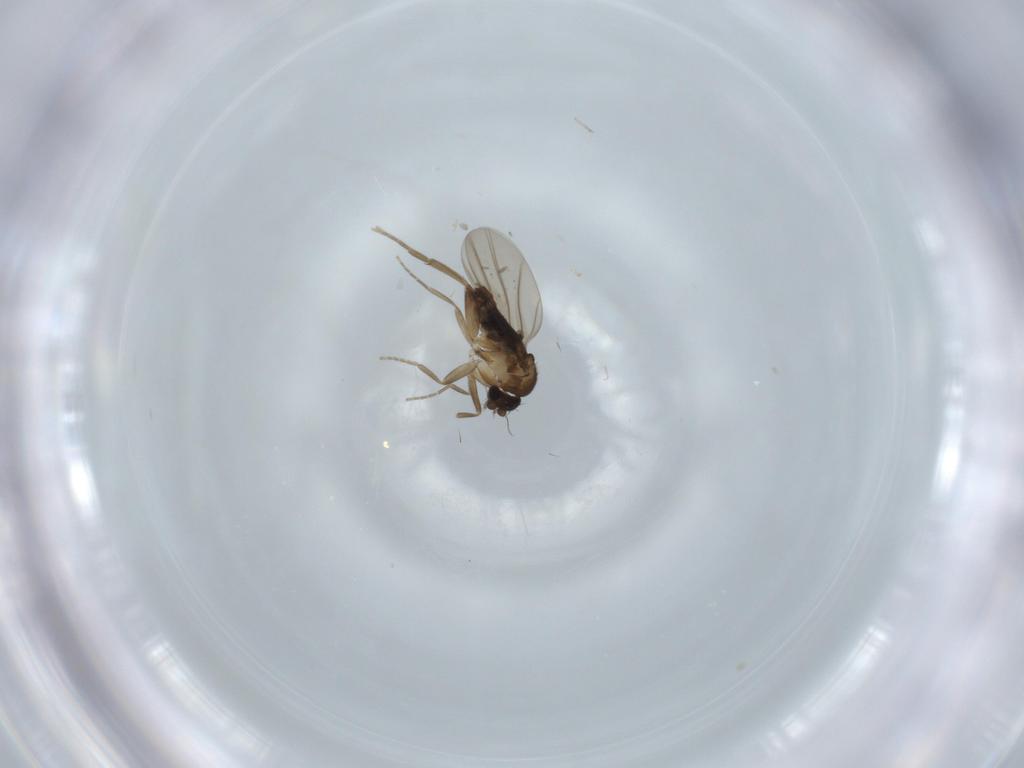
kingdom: Animalia
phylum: Arthropoda
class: Insecta
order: Diptera
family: Phoridae
